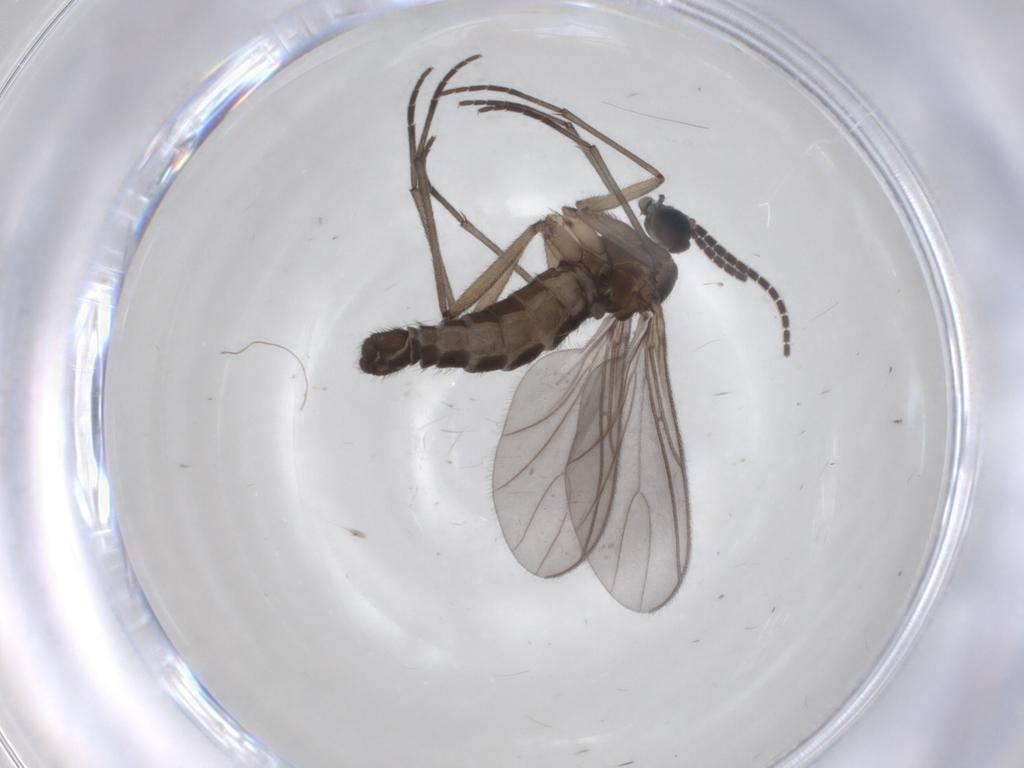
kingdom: Animalia
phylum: Arthropoda
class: Insecta
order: Diptera
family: Sciaridae
